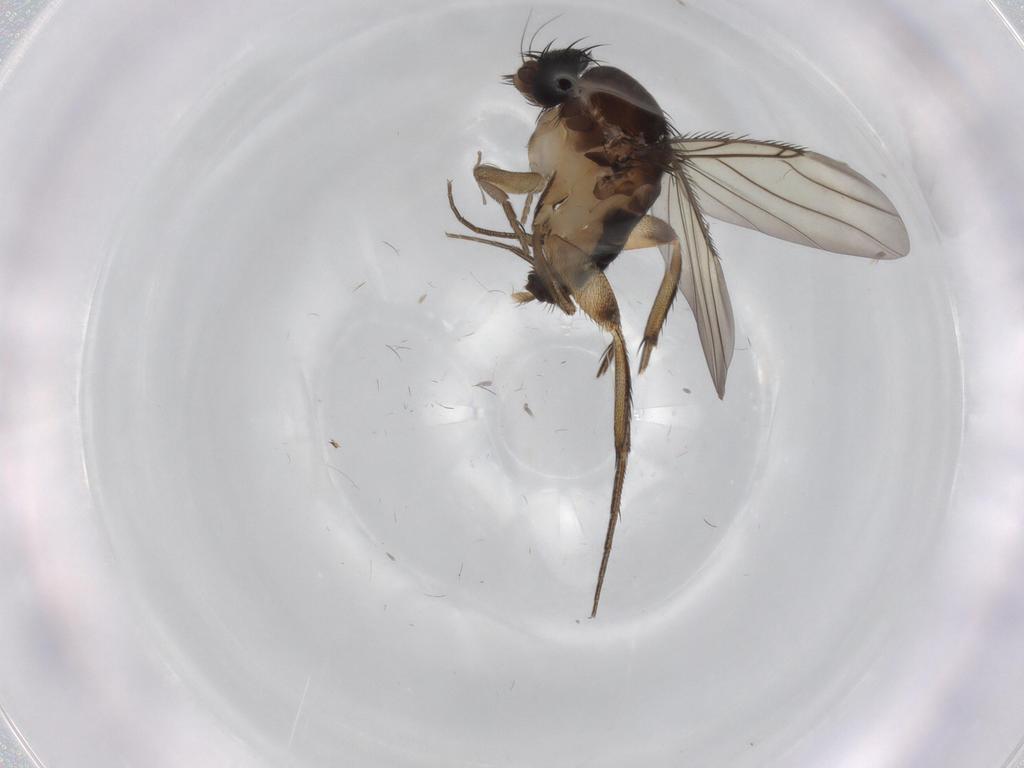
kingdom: Animalia
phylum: Arthropoda
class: Insecta
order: Diptera
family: Phoridae
